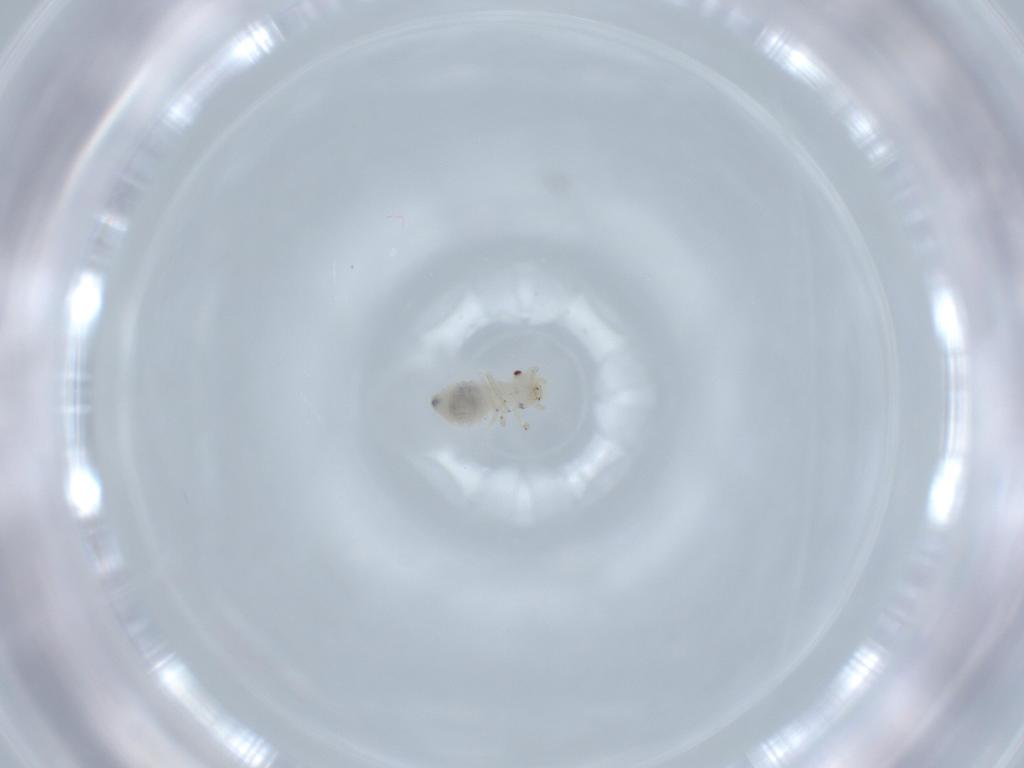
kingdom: Animalia
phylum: Arthropoda
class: Insecta
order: Psocodea
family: Caeciliusidae
